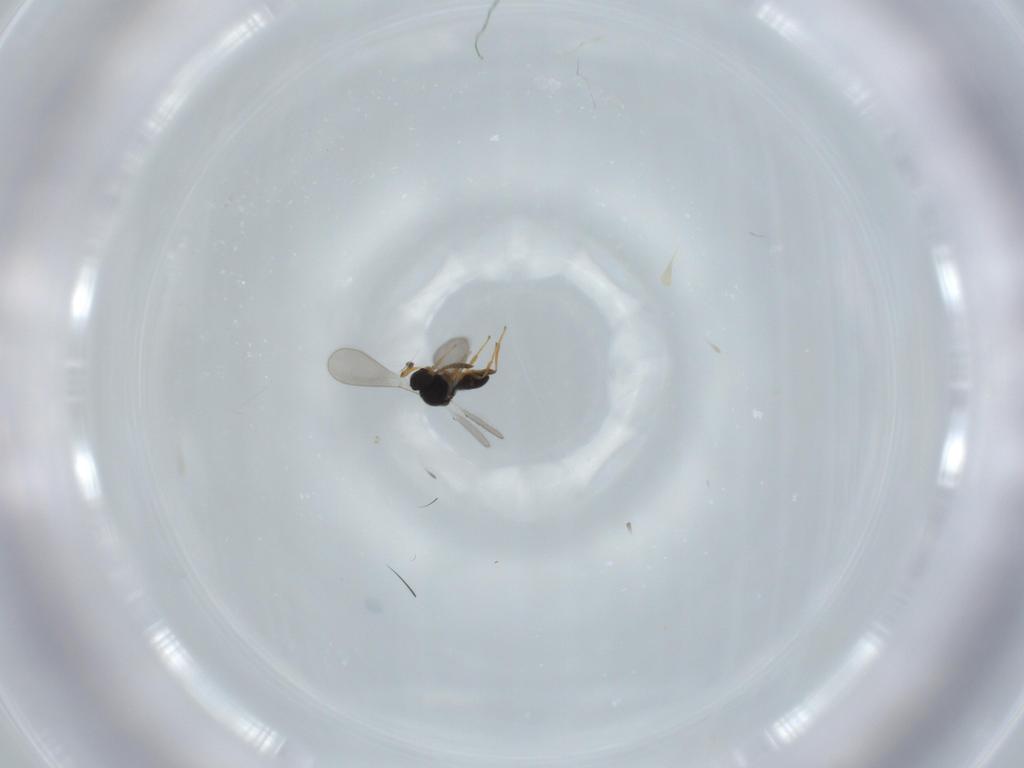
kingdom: Animalia
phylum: Arthropoda
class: Insecta
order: Hymenoptera
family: Platygastridae
